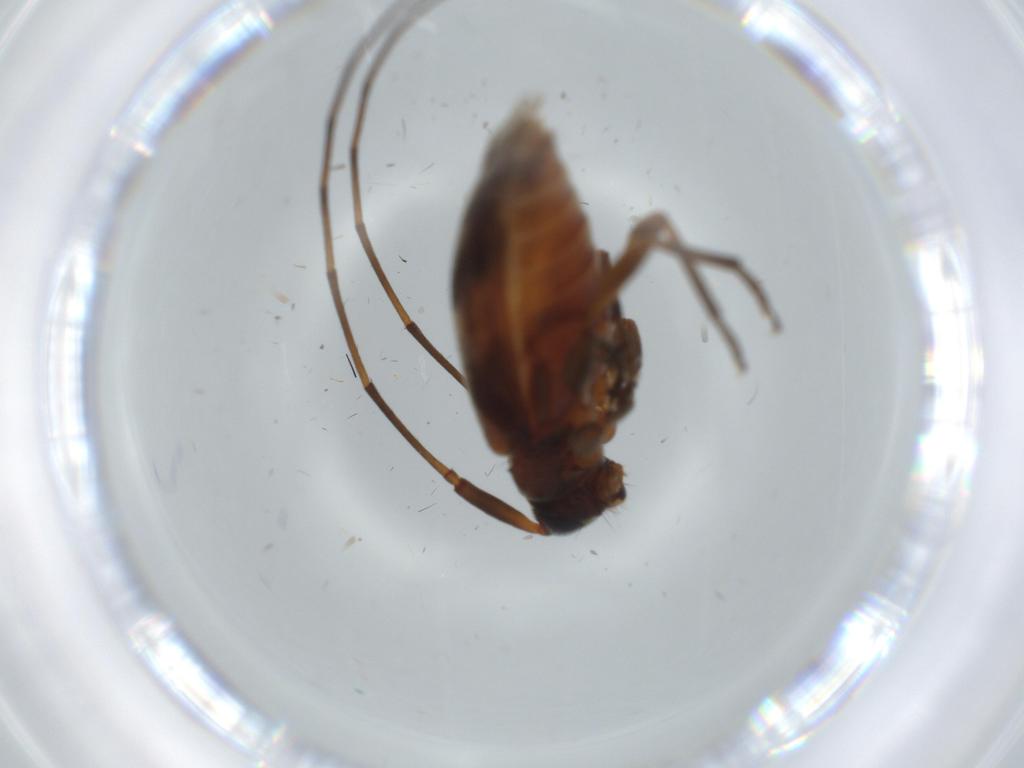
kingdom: Animalia
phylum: Arthropoda
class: Insecta
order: Coleoptera
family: Cerambycidae
